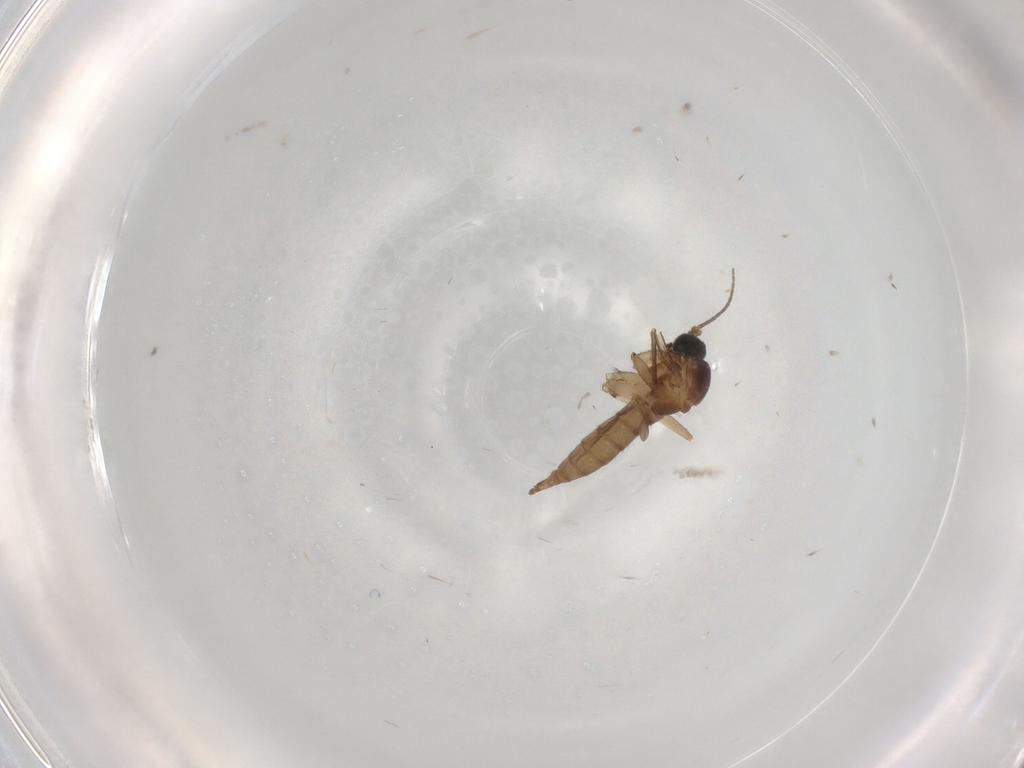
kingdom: Animalia
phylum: Arthropoda
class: Insecta
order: Diptera
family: Sciaridae
